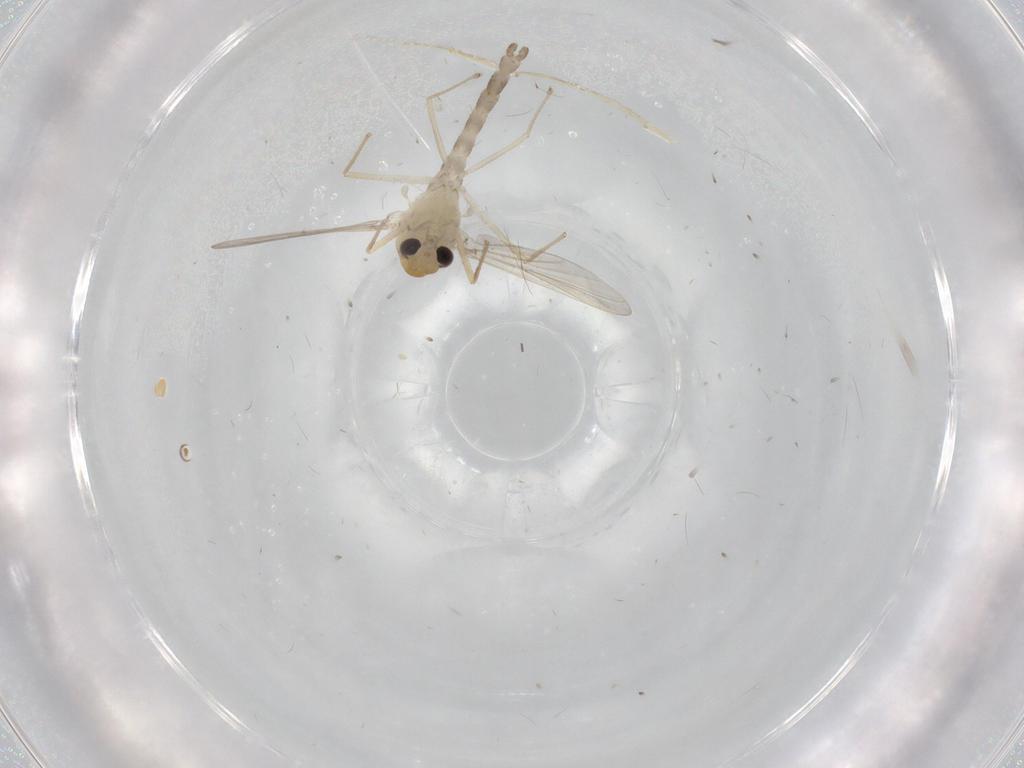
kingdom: Animalia
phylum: Arthropoda
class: Insecta
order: Diptera
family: Chironomidae
